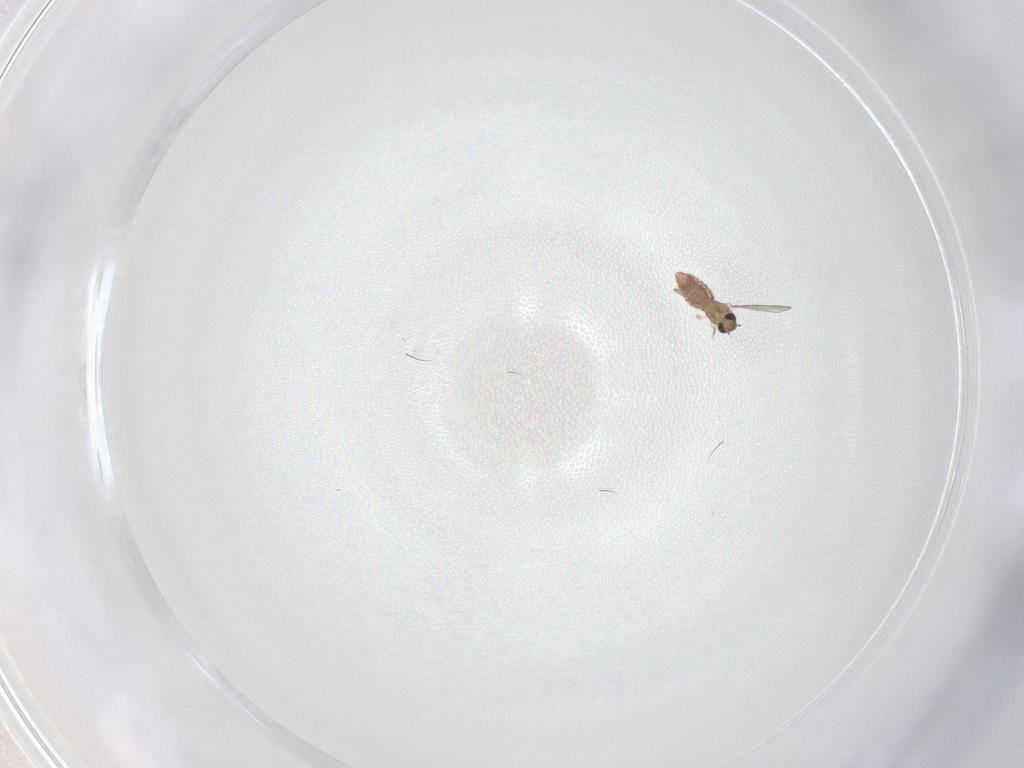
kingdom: Animalia
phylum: Arthropoda
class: Insecta
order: Diptera
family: Chironomidae
